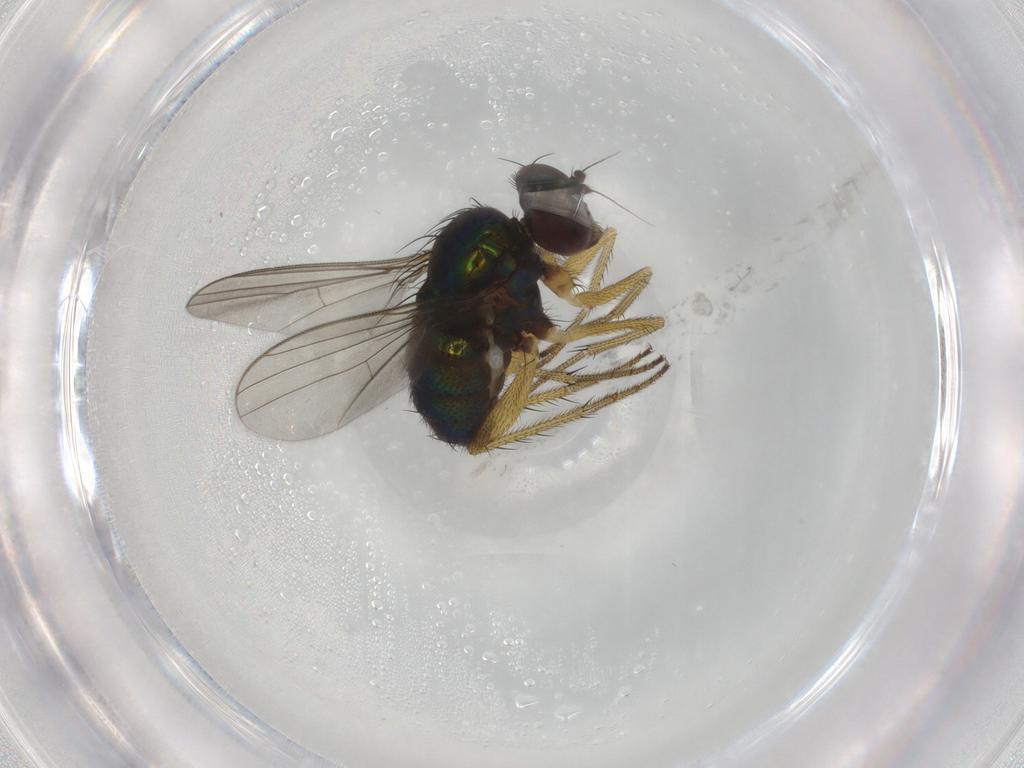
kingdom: Animalia
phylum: Arthropoda
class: Insecta
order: Diptera
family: Dolichopodidae
